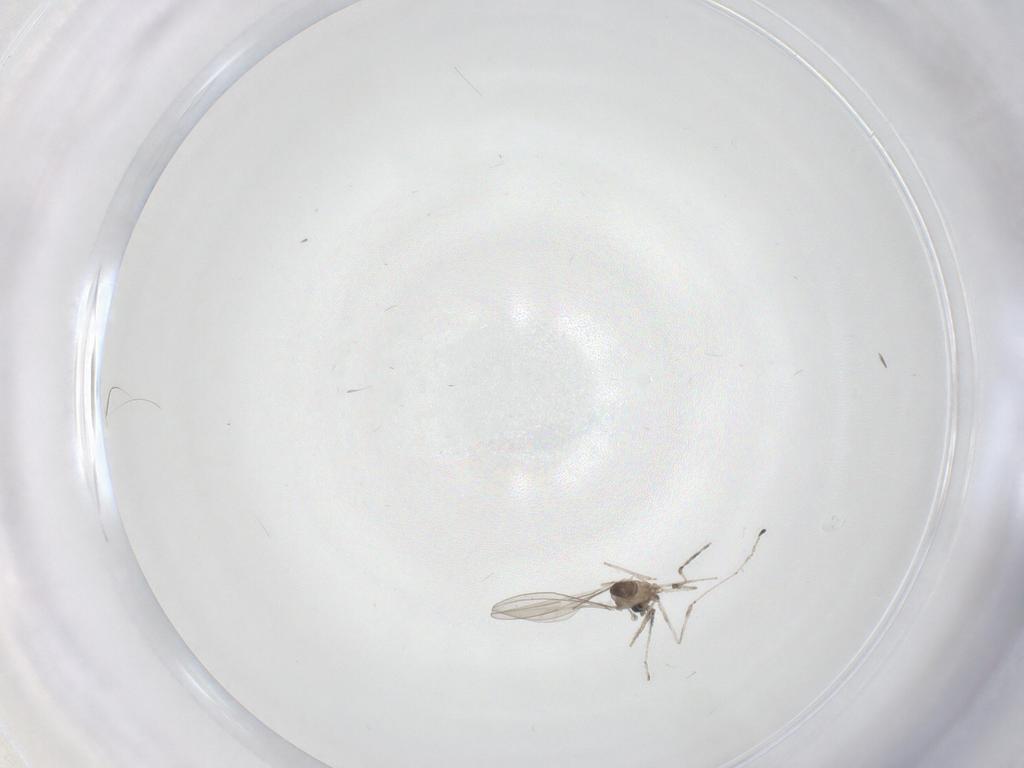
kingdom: Animalia
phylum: Arthropoda
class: Insecta
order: Diptera
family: Cecidomyiidae
